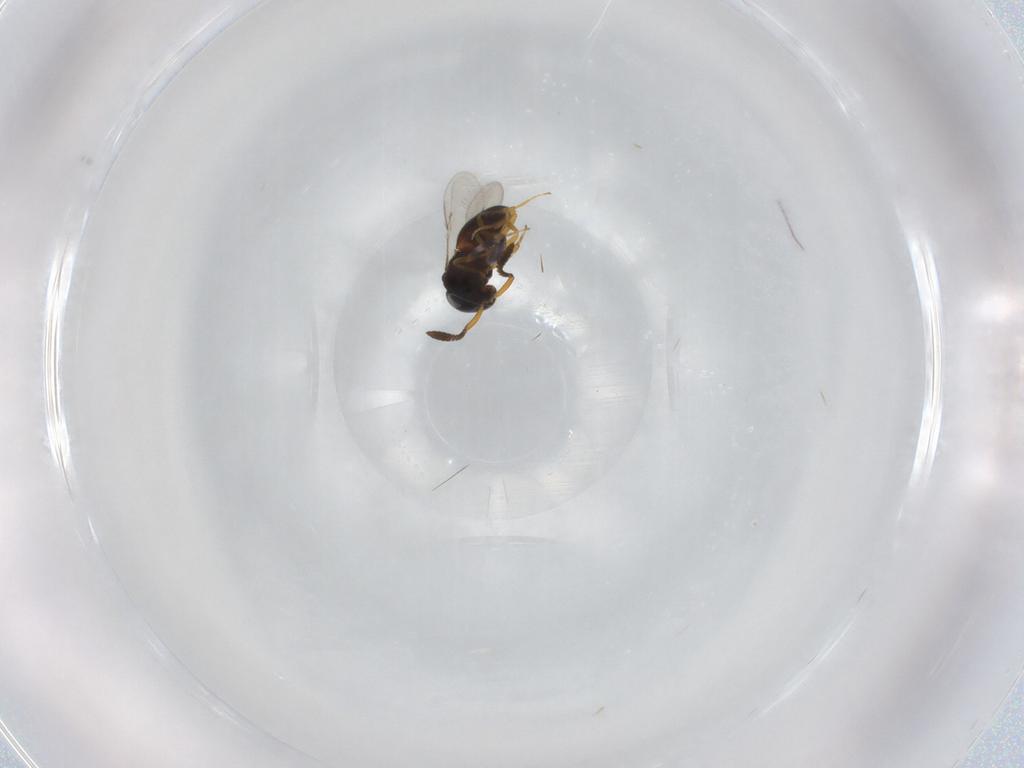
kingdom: Animalia
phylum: Arthropoda
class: Insecta
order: Hymenoptera
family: Scelionidae
